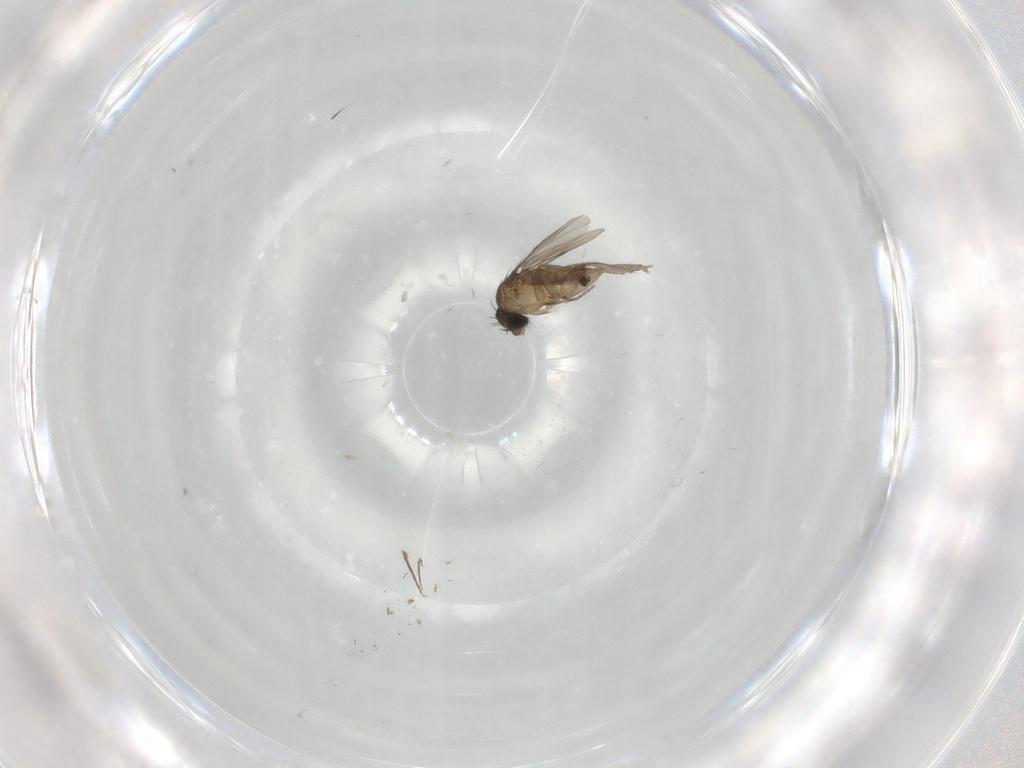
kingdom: Animalia
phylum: Arthropoda
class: Insecta
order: Diptera
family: Phoridae
